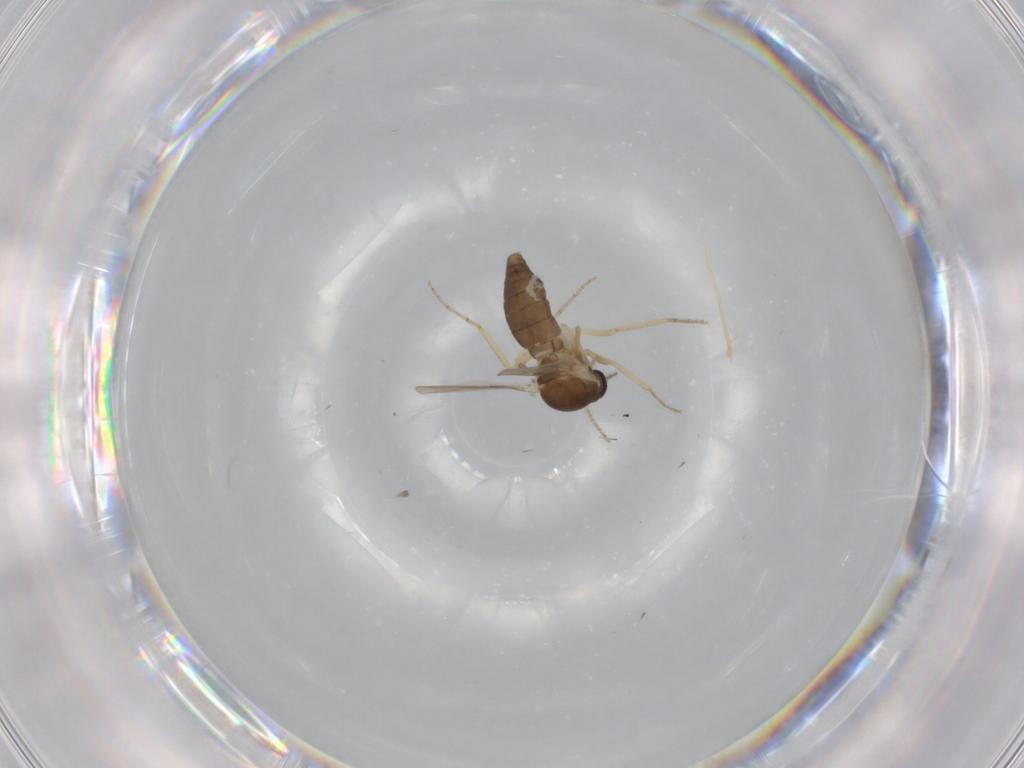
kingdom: Animalia
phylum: Arthropoda
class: Insecta
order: Diptera
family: Ceratopogonidae
